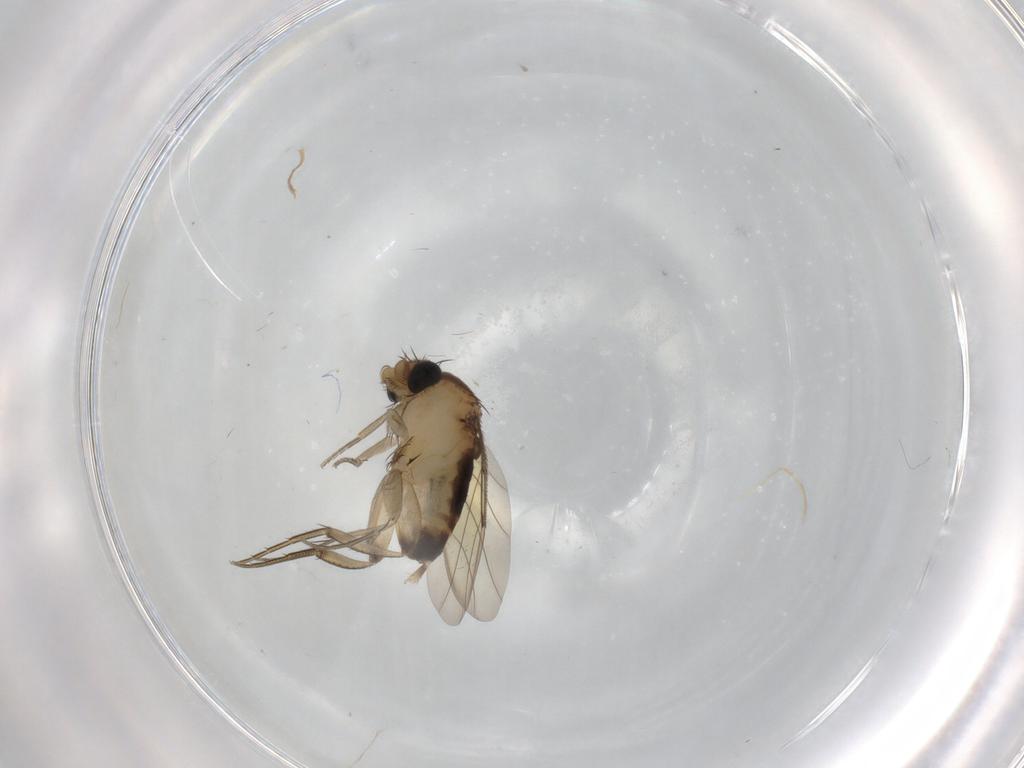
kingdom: Animalia
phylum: Arthropoda
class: Insecta
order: Diptera
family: Phoridae
